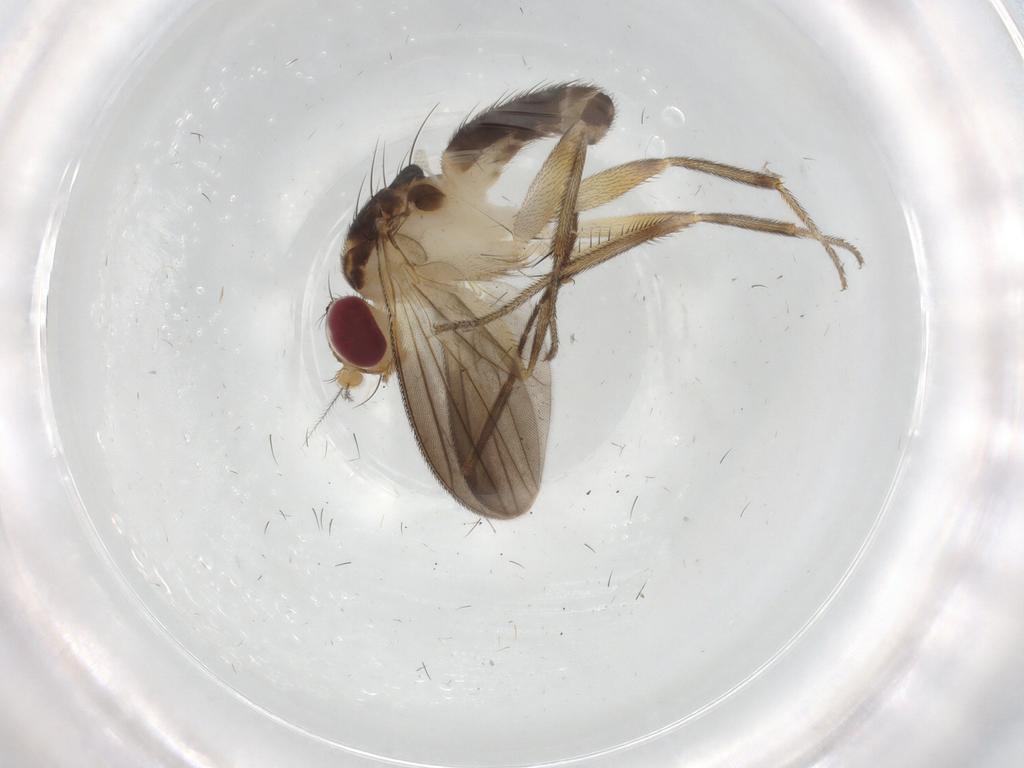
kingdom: Animalia
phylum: Arthropoda
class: Insecta
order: Diptera
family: Clusiidae
